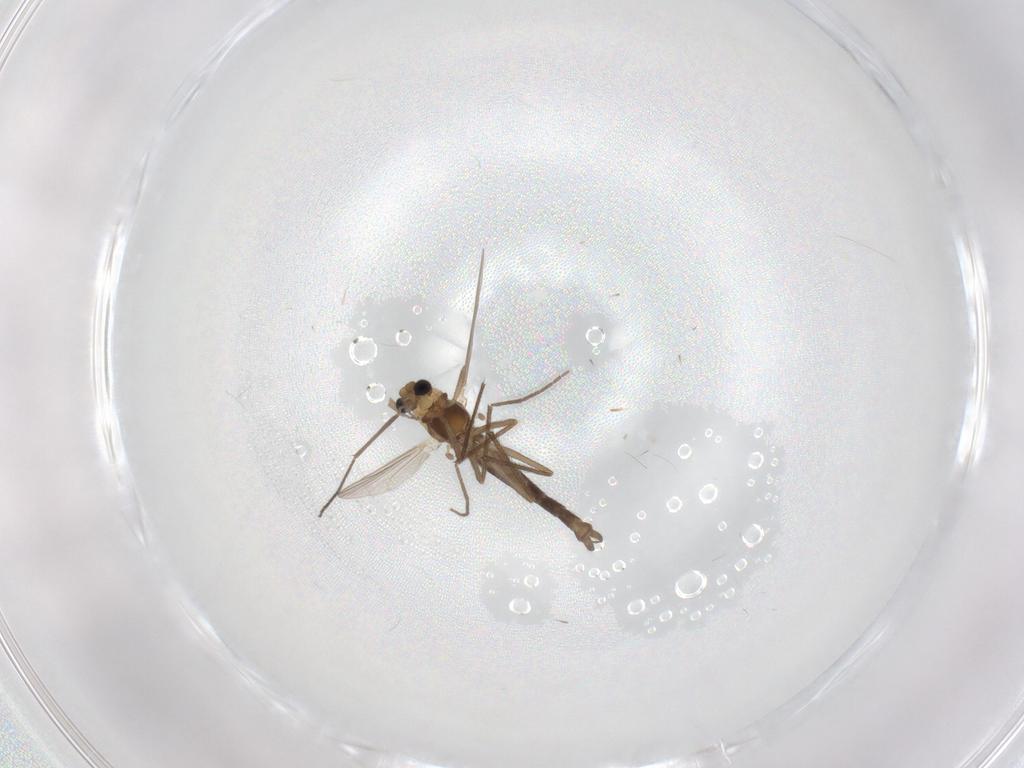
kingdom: Animalia
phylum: Arthropoda
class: Insecta
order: Diptera
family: Chironomidae
